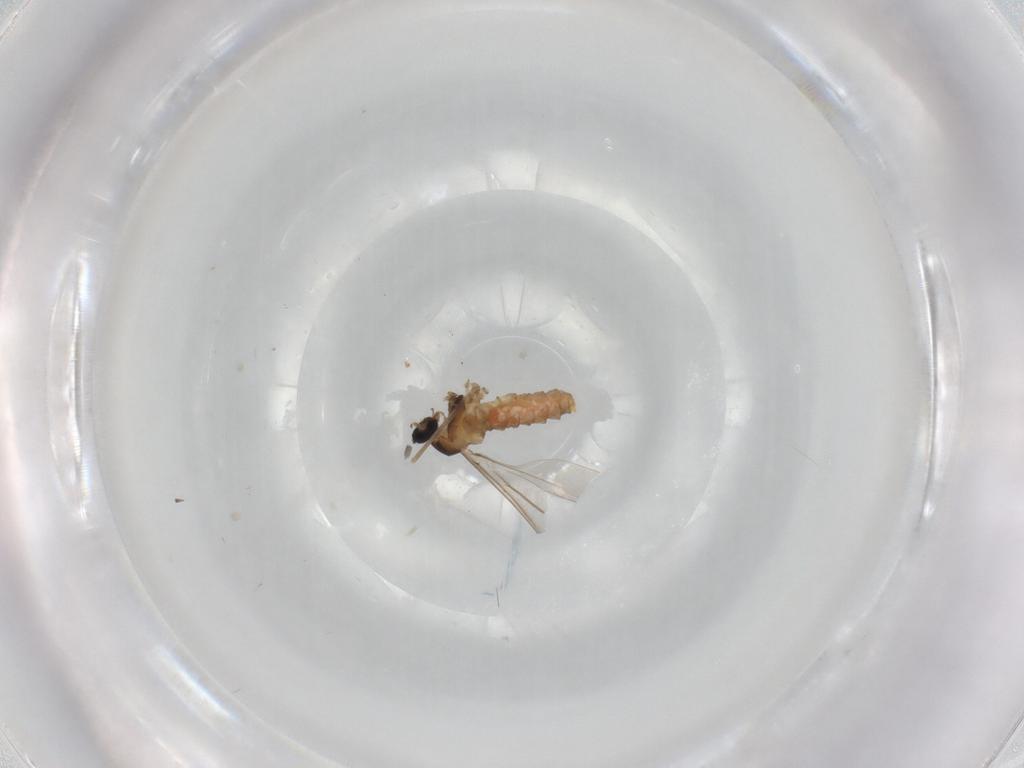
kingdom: Animalia
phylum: Arthropoda
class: Insecta
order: Diptera
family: Cecidomyiidae
